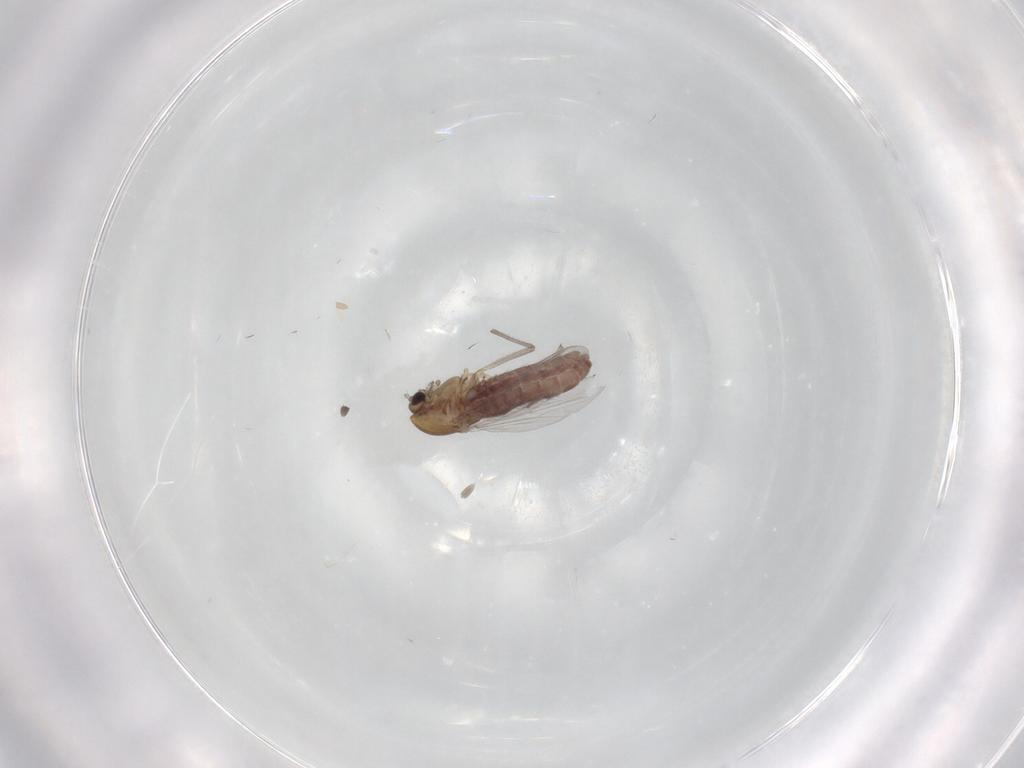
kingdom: Animalia
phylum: Arthropoda
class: Insecta
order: Diptera
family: Chironomidae
